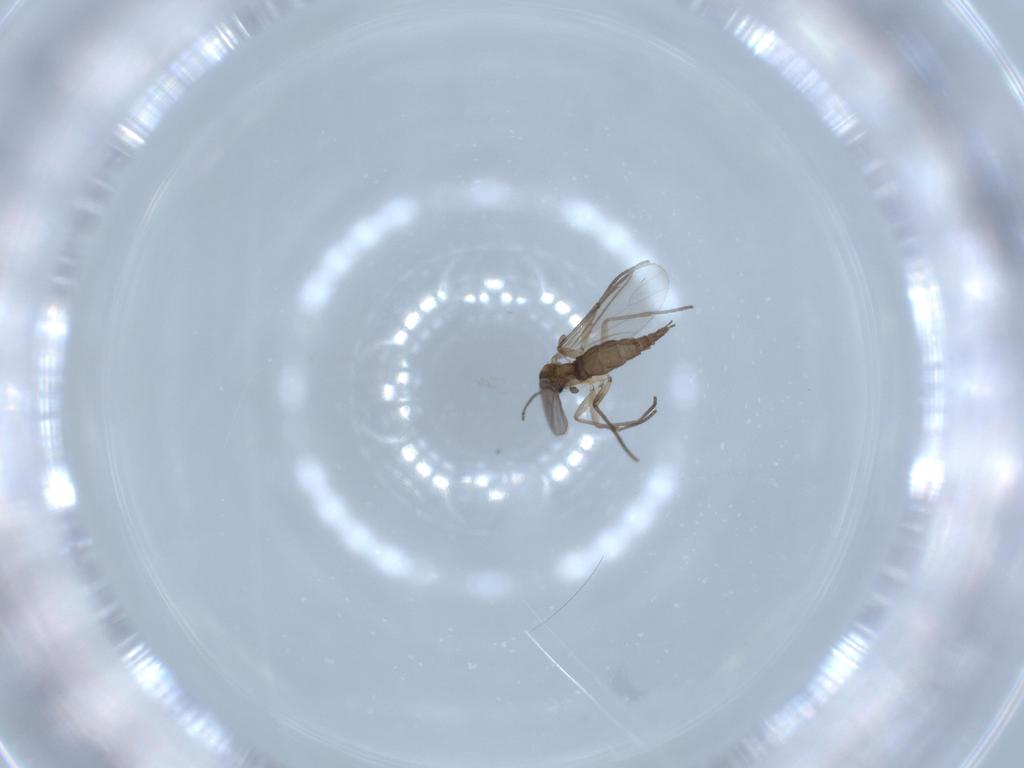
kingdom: Animalia
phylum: Arthropoda
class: Insecta
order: Diptera
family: Sciaridae
